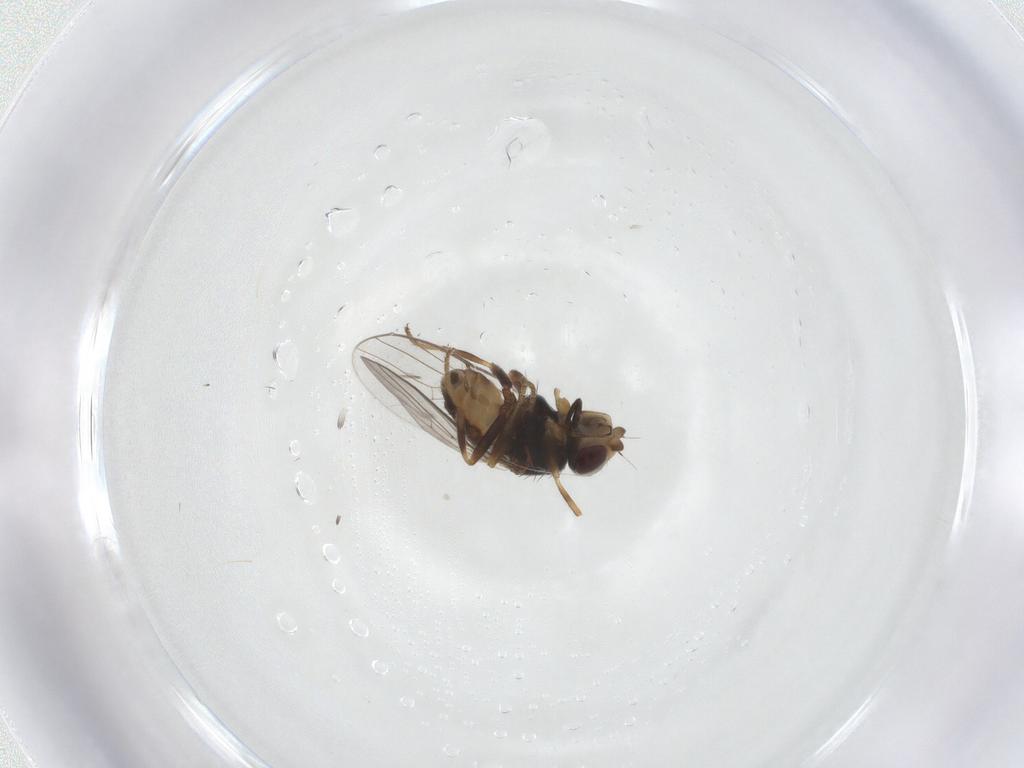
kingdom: Animalia
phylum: Arthropoda
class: Insecta
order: Diptera
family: Chloropidae
